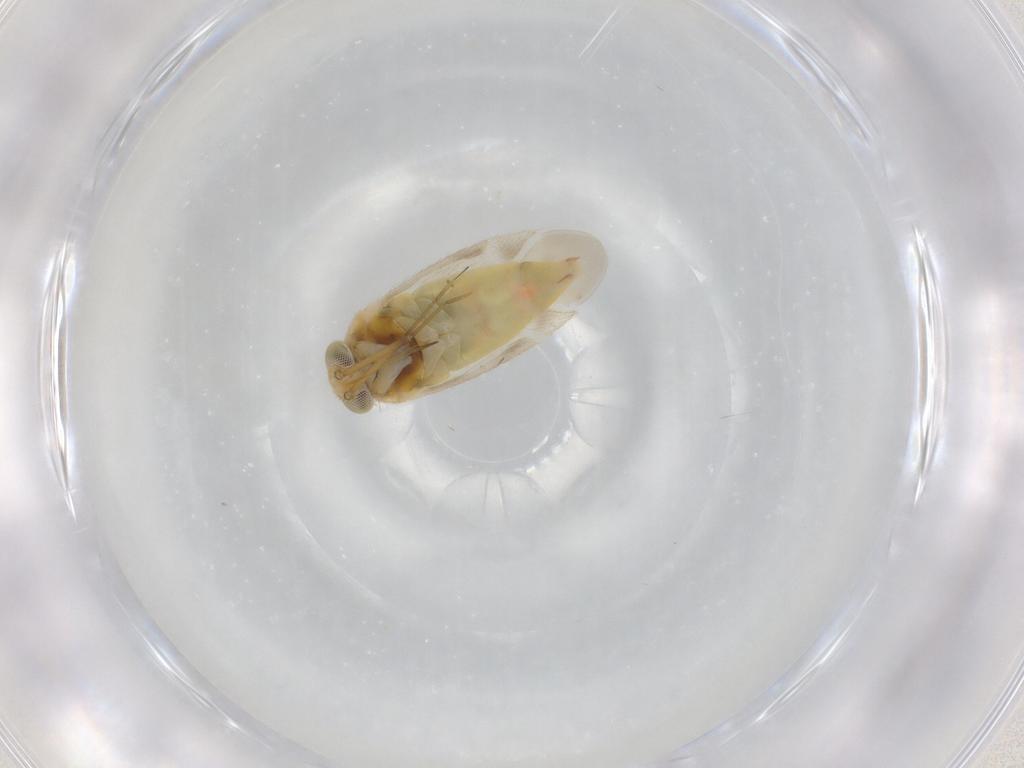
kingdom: Animalia
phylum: Arthropoda
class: Insecta
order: Hemiptera
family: Miridae
